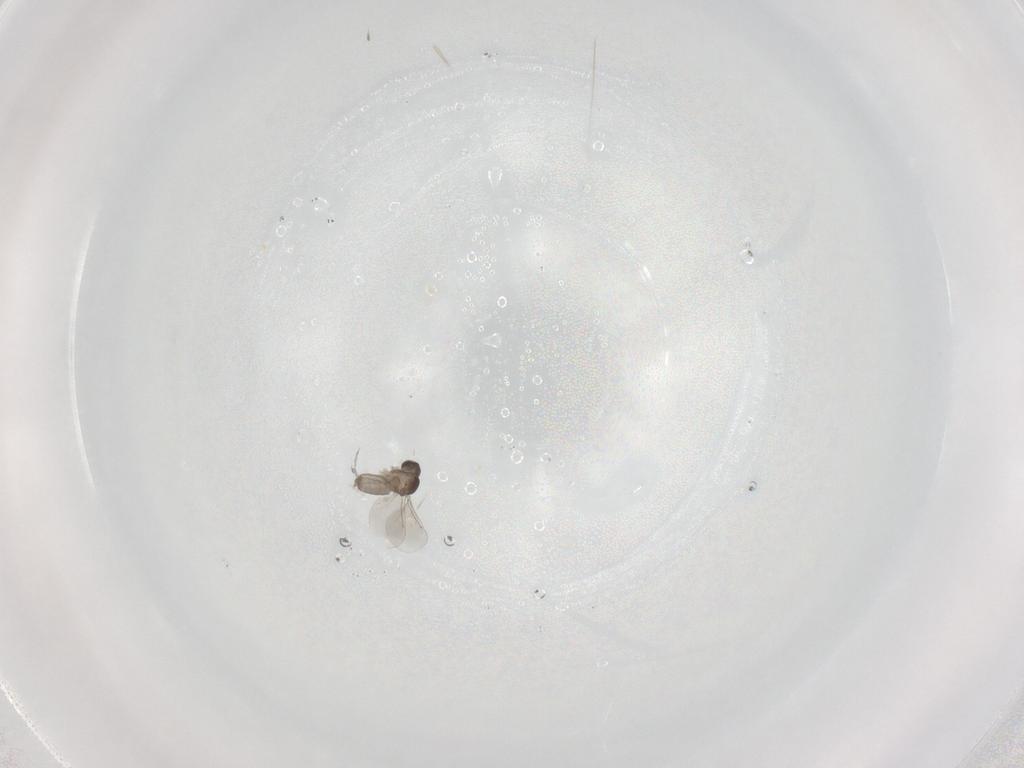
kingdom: Animalia
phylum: Arthropoda
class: Insecta
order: Diptera
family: Cecidomyiidae
